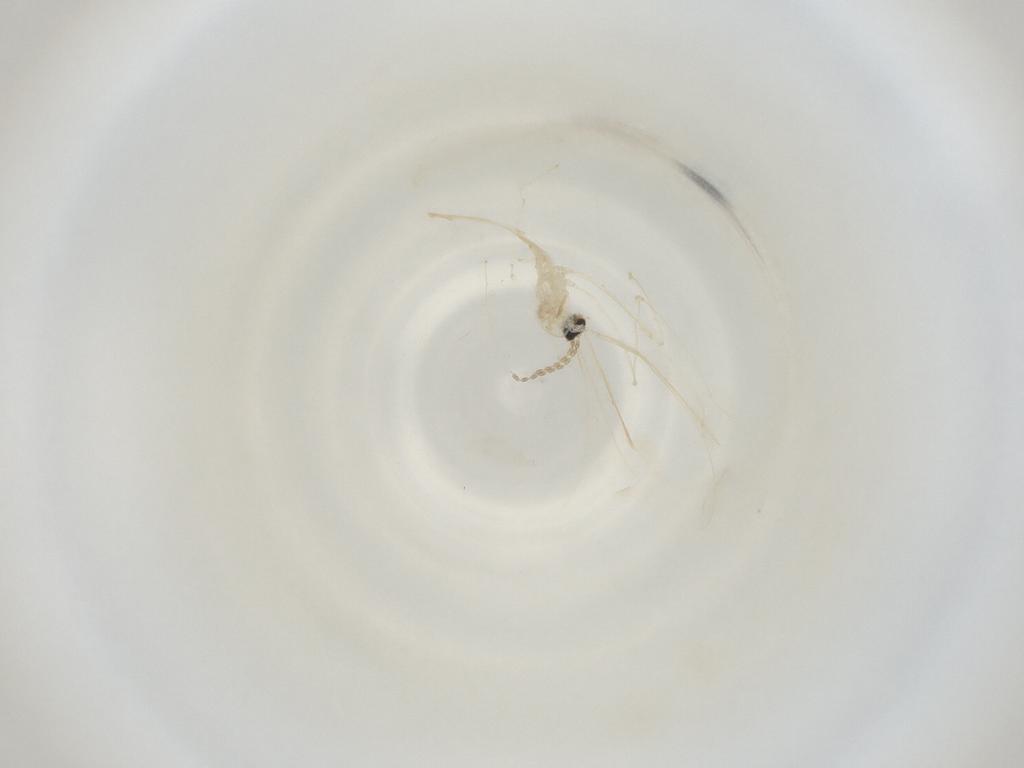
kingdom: Animalia
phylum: Arthropoda
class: Insecta
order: Diptera
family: Cecidomyiidae
